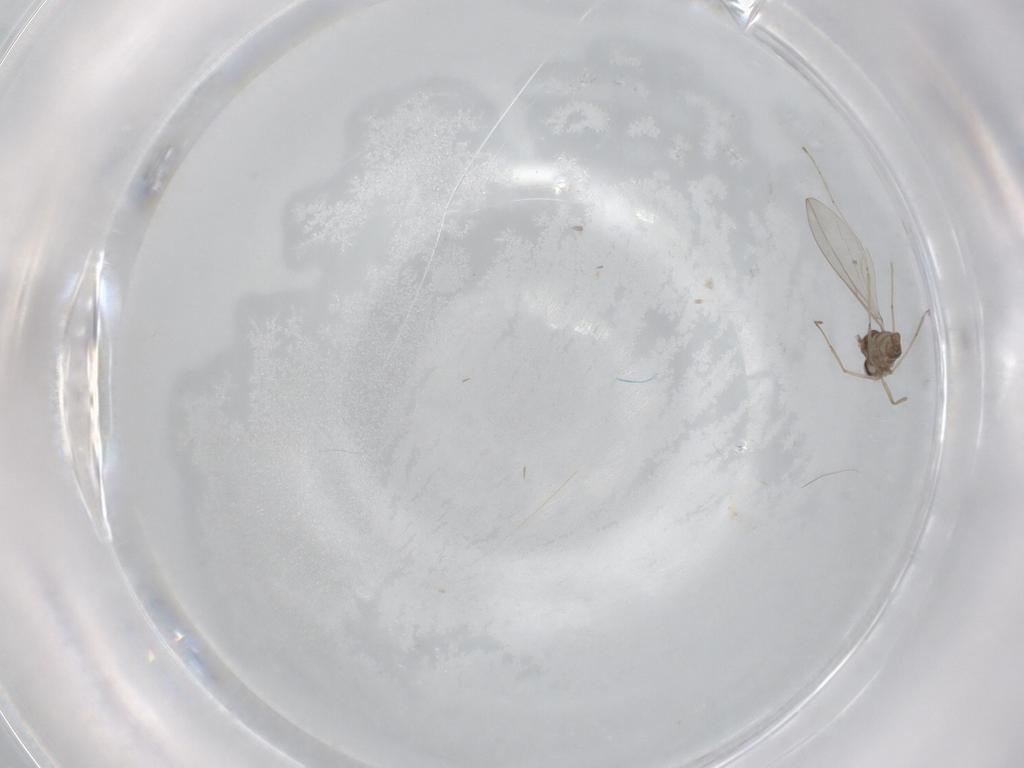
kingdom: Animalia
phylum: Arthropoda
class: Insecta
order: Diptera
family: Cecidomyiidae
